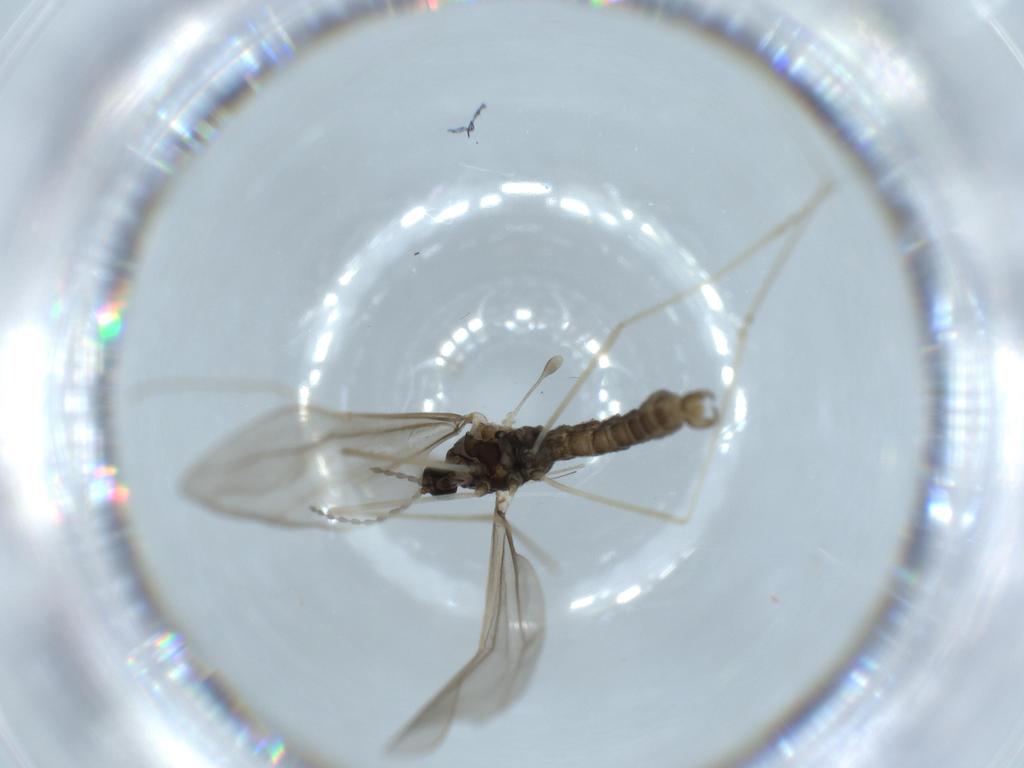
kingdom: Animalia
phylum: Arthropoda
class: Insecta
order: Diptera
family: Cecidomyiidae
